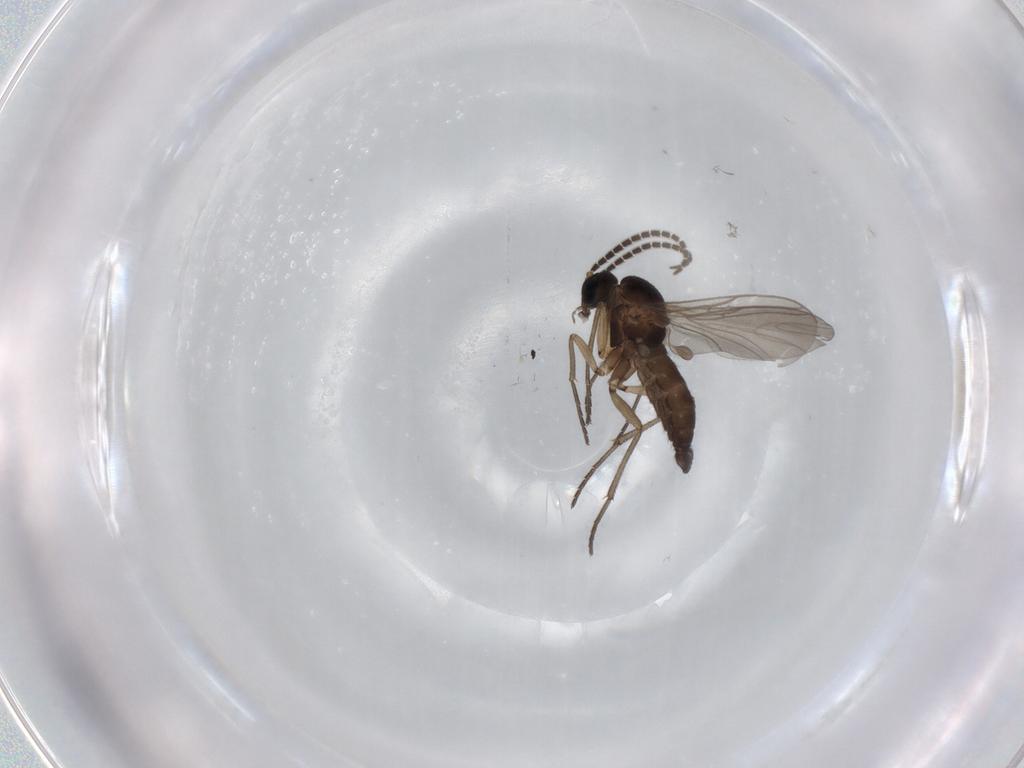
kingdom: Animalia
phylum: Arthropoda
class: Insecta
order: Diptera
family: Sciaridae
